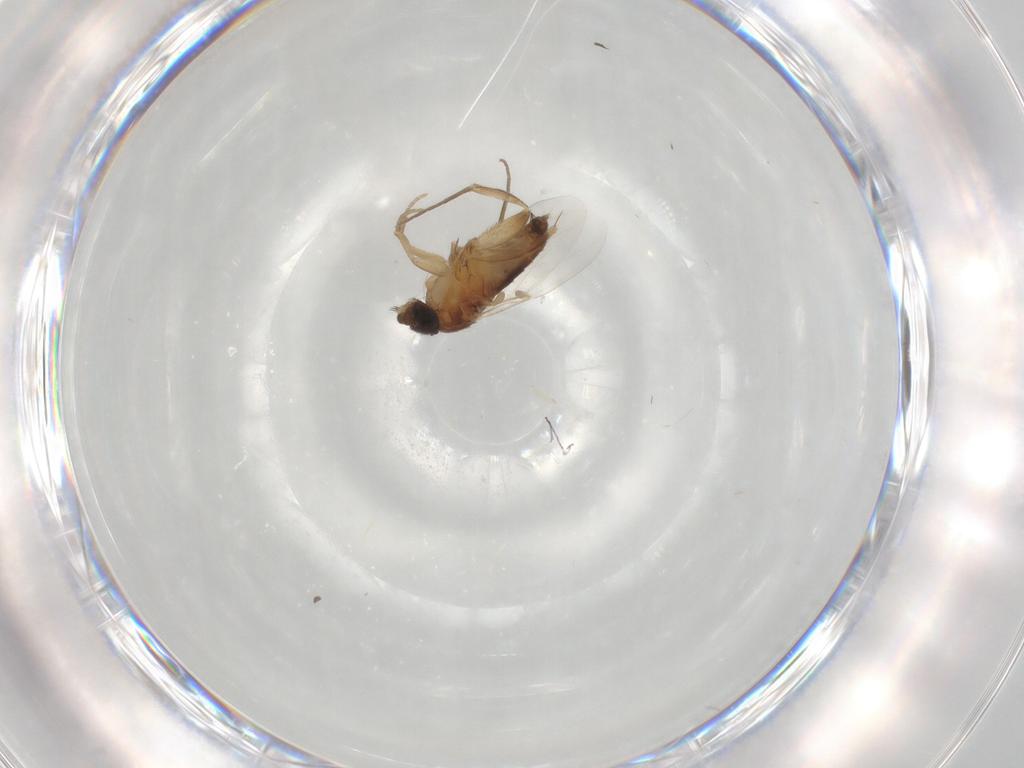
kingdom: Animalia
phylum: Arthropoda
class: Insecta
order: Diptera
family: Phoridae
